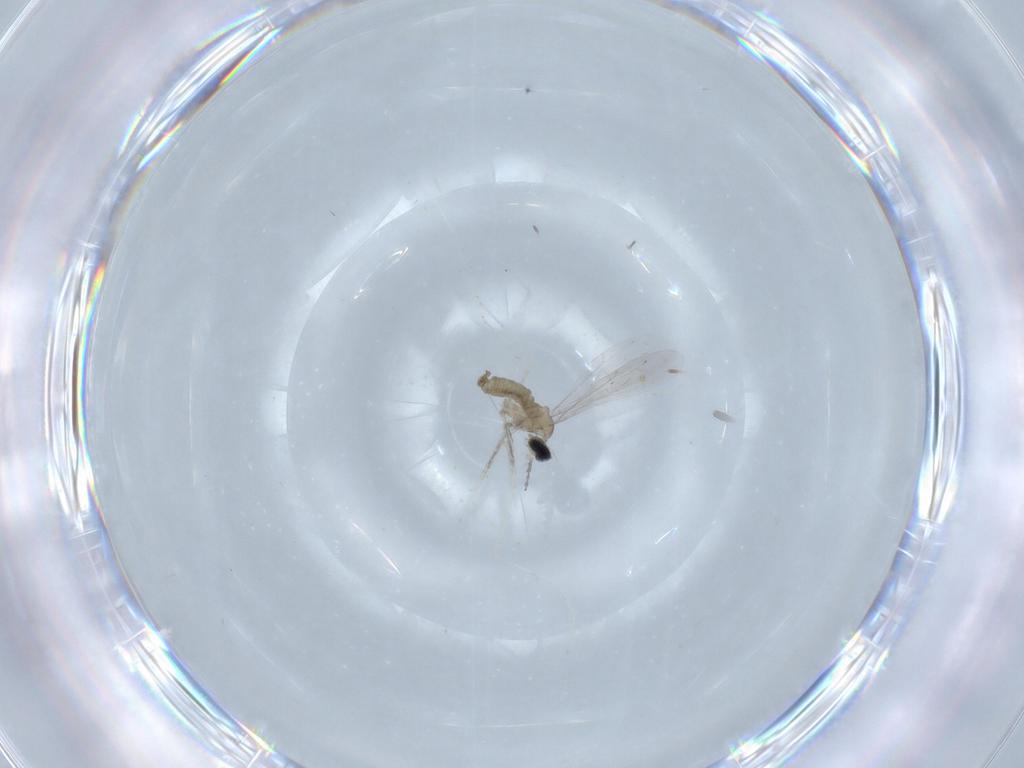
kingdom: Animalia
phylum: Arthropoda
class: Insecta
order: Diptera
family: Cecidomyiidae
